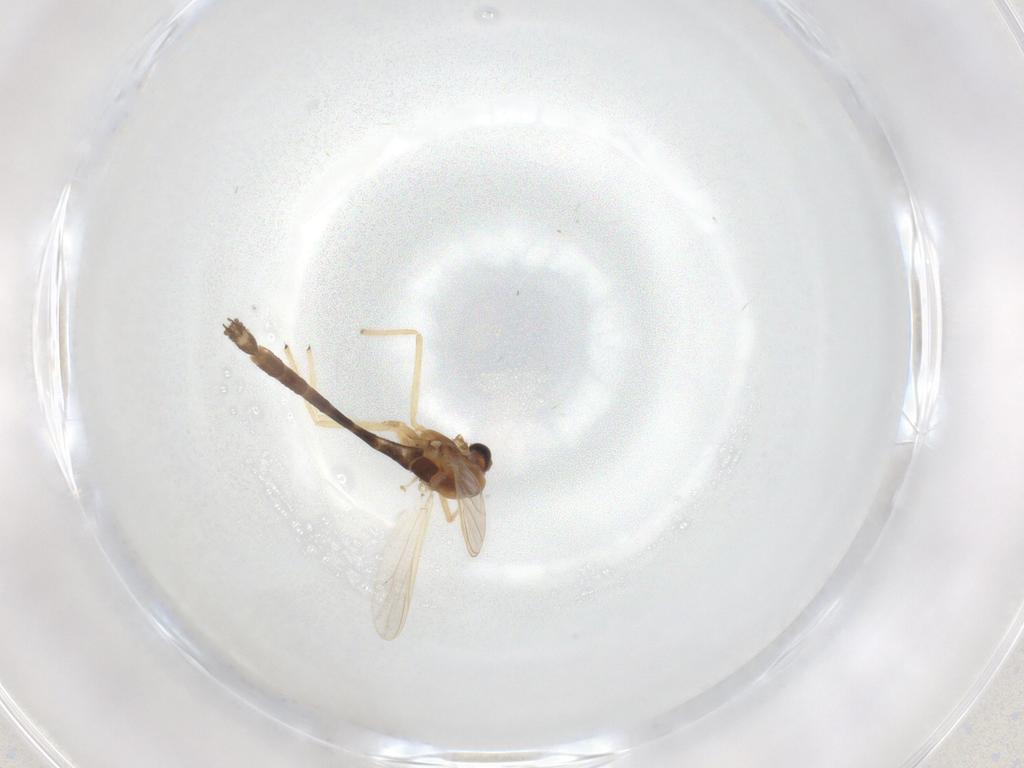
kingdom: Animalia
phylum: Arthropoda
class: Insecta
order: Diptera
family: Chironomidae
